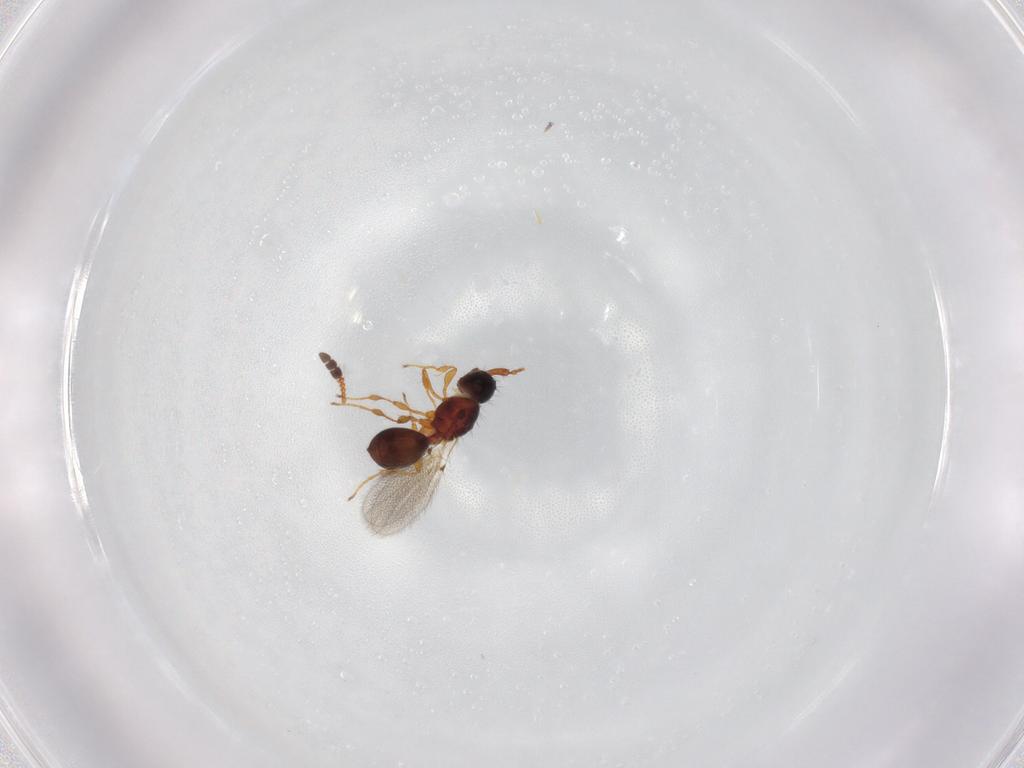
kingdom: Animalia
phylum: Arthropoda
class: Insecta
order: Hymenoptera
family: Diapriidae
